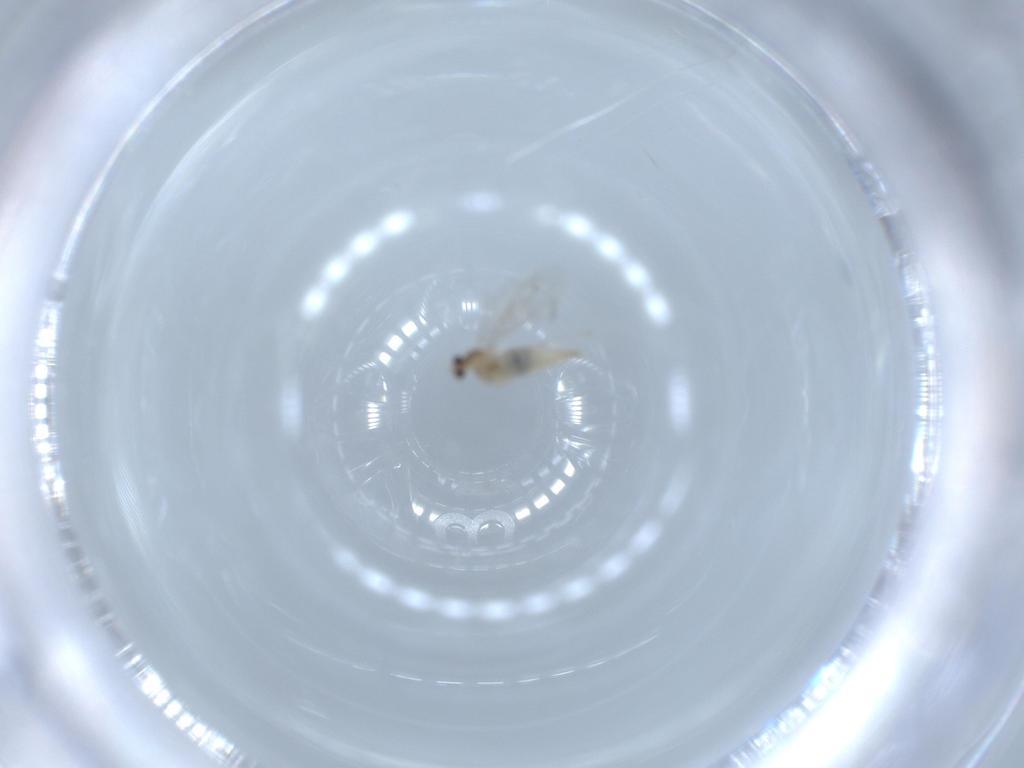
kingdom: Animalia
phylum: Arthropoda
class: Insecta
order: Diptera
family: Cecidomyiidae
